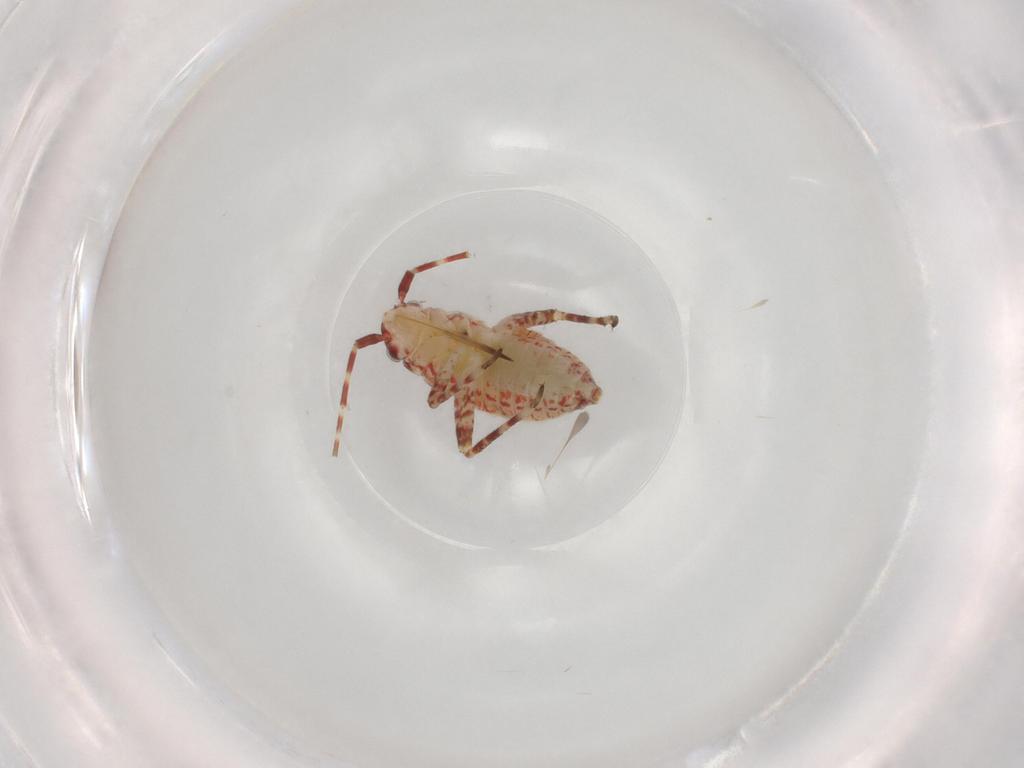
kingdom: Animalia
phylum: Arthropoda
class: Insecta
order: Hemiptera
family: Miridae
